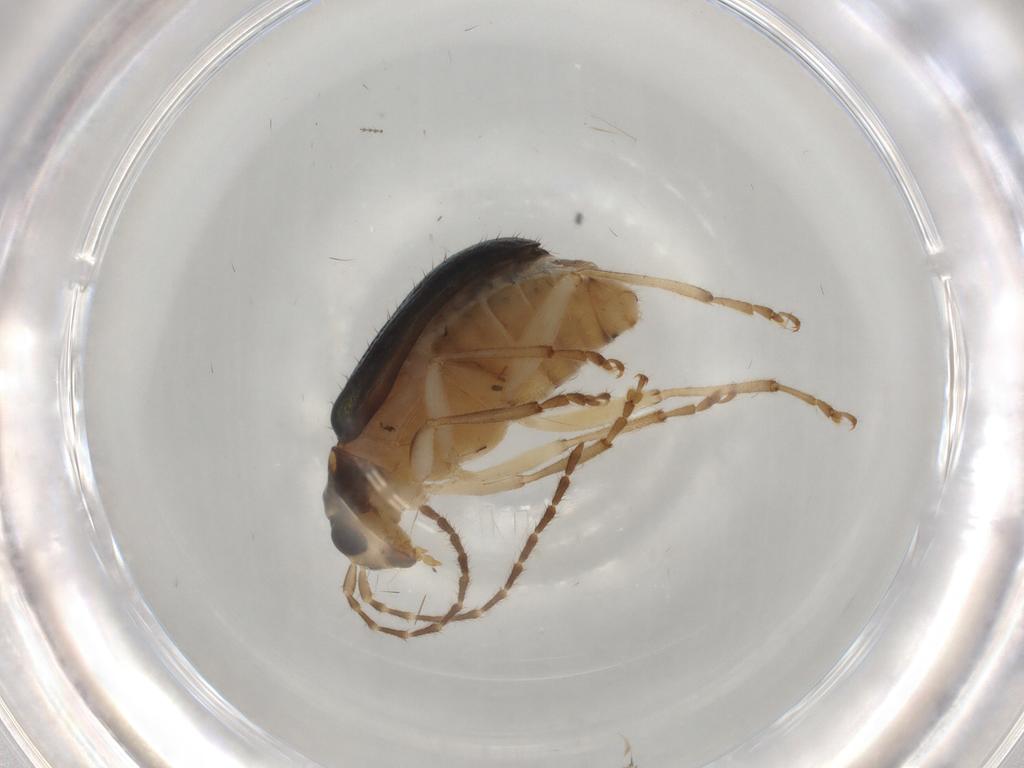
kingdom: Animalia
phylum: Arthropoda
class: Insecta
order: Coleoptera
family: Chrysomelidae
